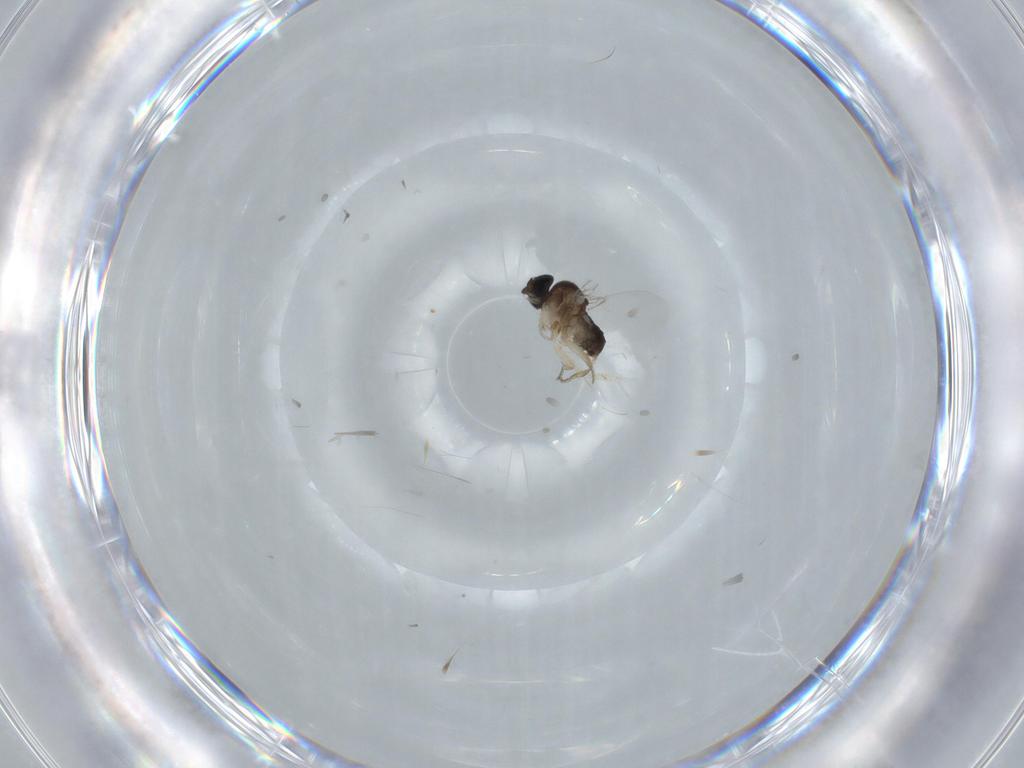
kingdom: Animalia
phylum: Arthropoda
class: Insecta
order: Diptera
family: Phoridae
